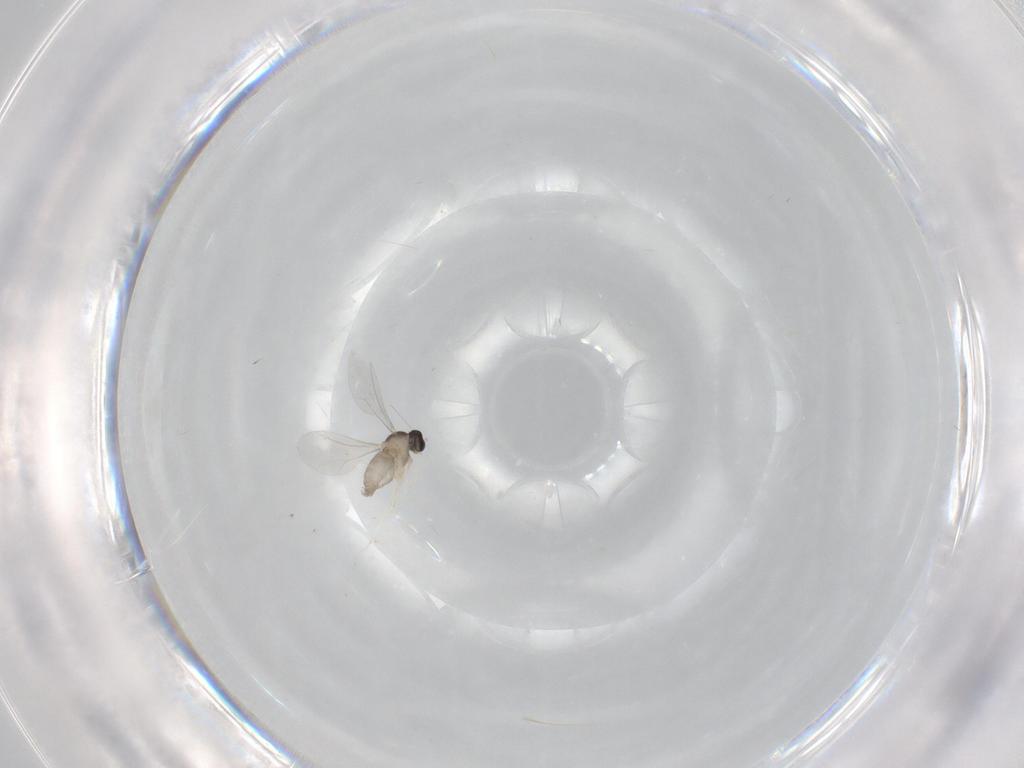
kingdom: Animalia
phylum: Arthropoda
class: Insecta
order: Diptera
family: Cecidomyiidae
